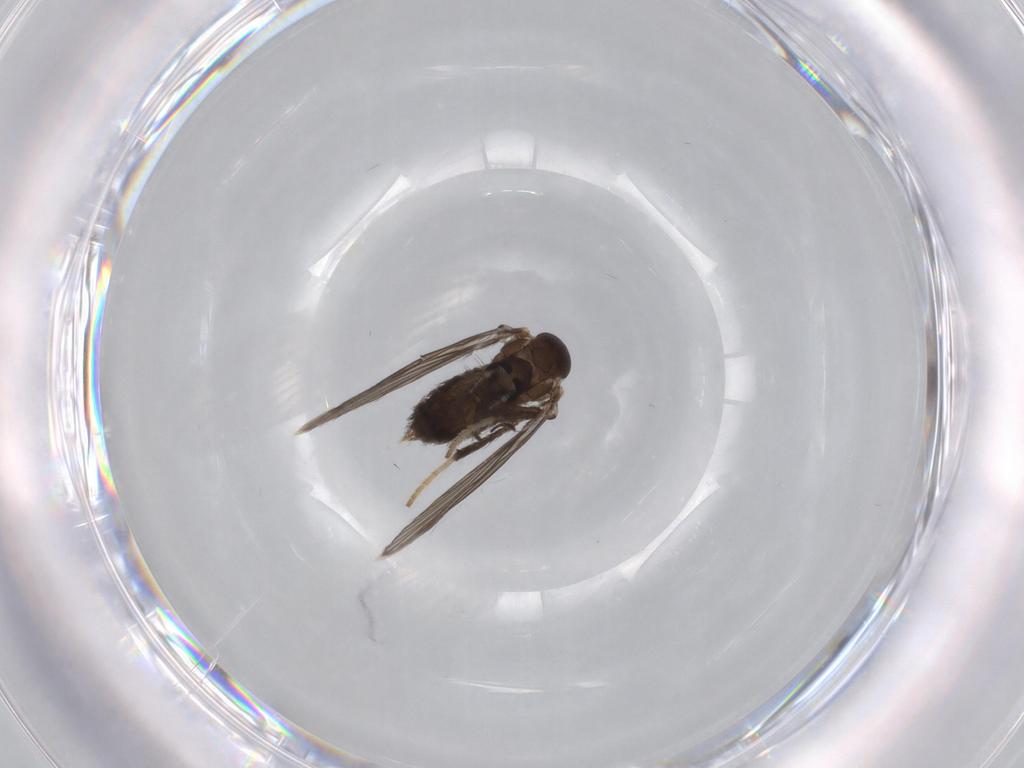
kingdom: Animalia
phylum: Arthropoda
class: Insecta
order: Diptera
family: Psychodidae
